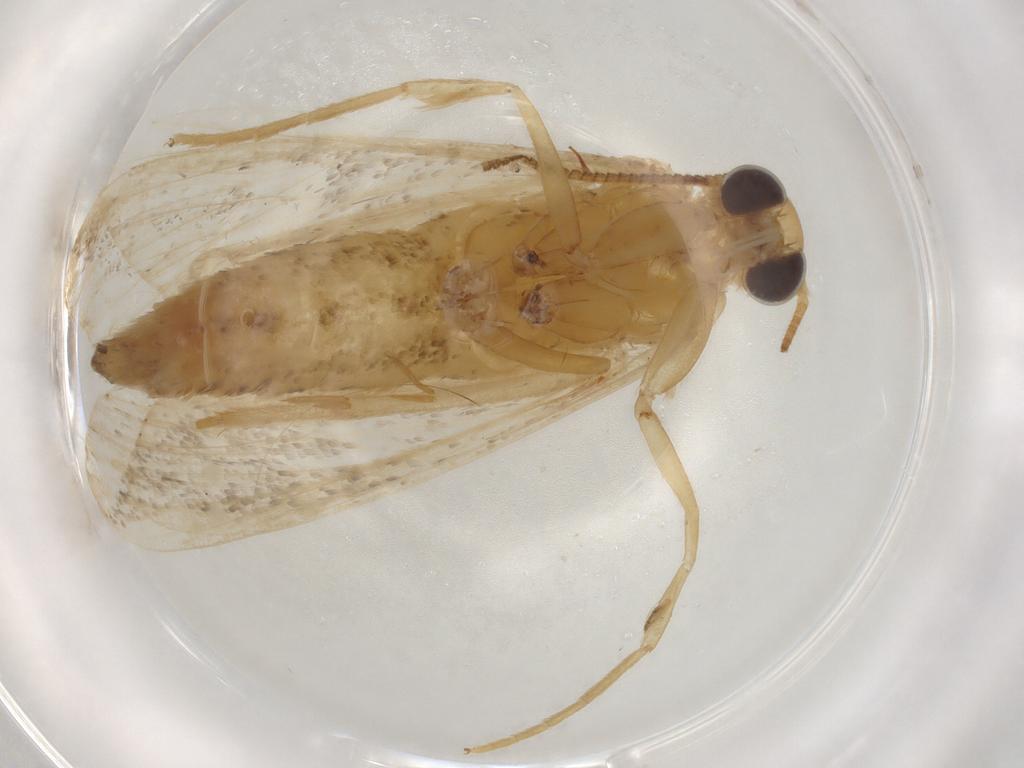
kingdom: Animalia
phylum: Arthropoda
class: Insecta
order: Lepidoptera
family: Pyralidae
